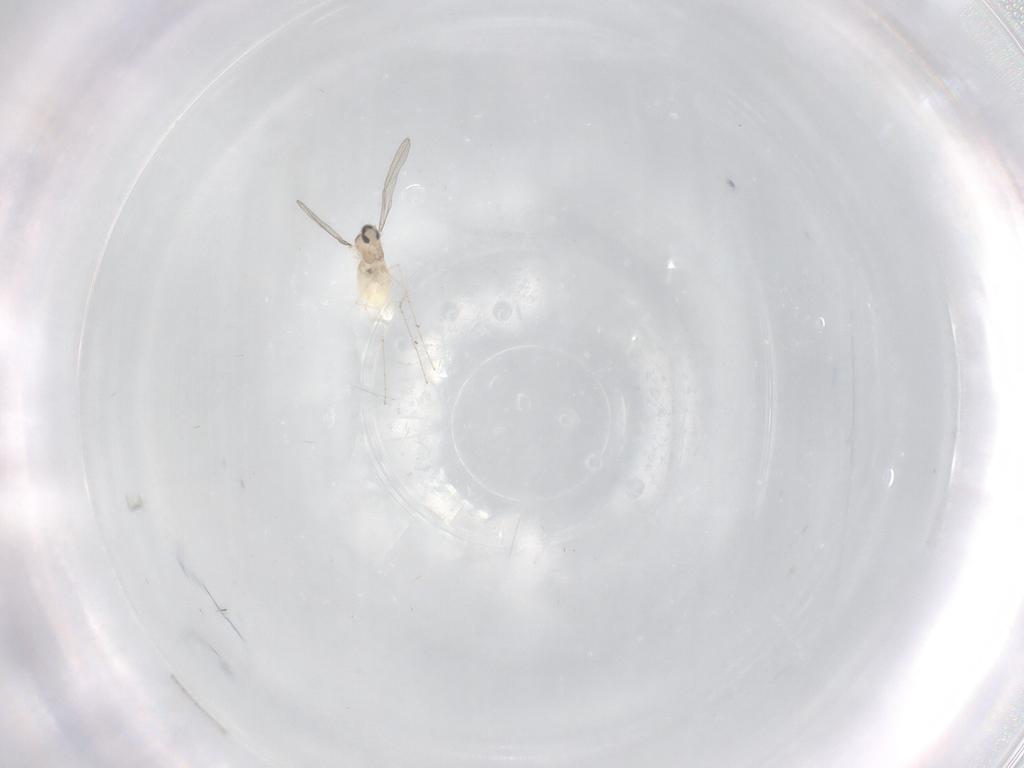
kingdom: Animalia
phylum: Arthropoda
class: Insecta
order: Diptera
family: Cecidomyiidae
